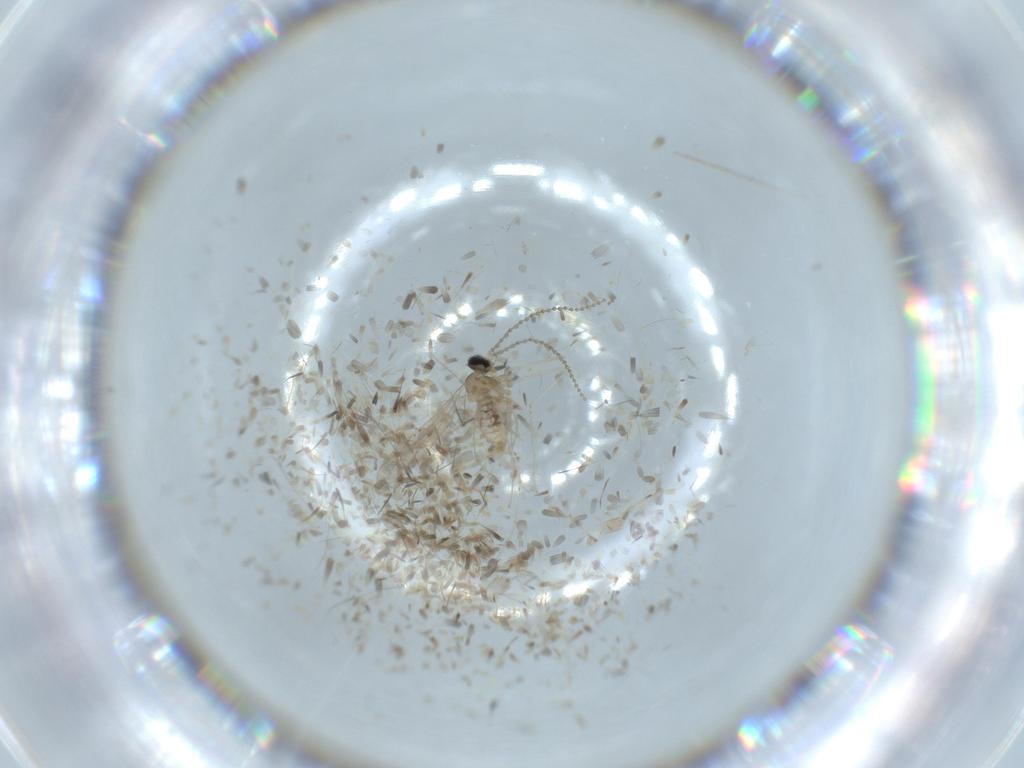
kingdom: Animalia
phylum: Arthropoda
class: Insecta
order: Diptera
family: Cecidomyiidae
